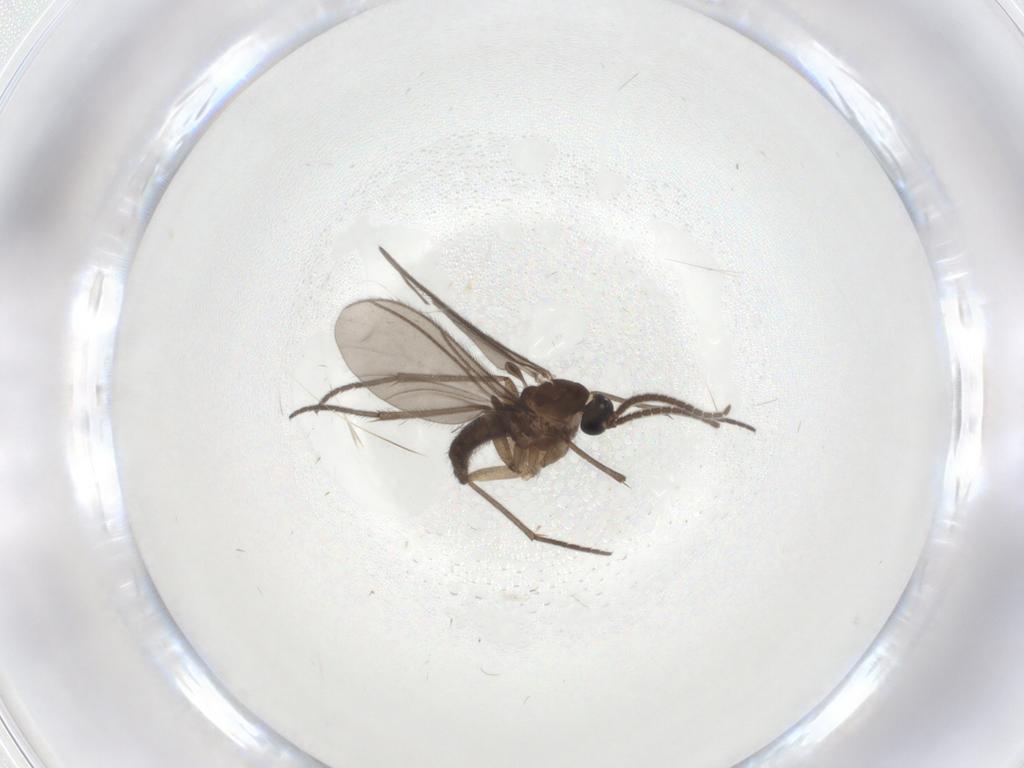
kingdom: Animalia
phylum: Arthropoda
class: Insecta
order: Diptera
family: Sciaridae
